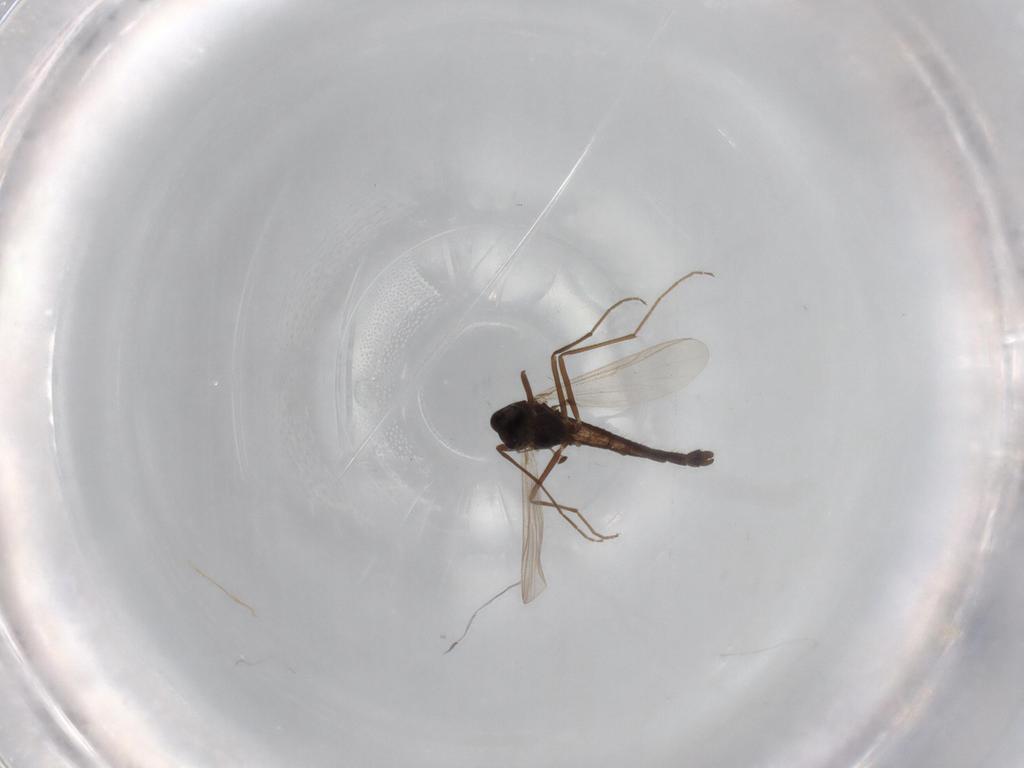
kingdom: Animalia
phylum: Arthropoda
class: Insecta
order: Diptera
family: Chironomidae
